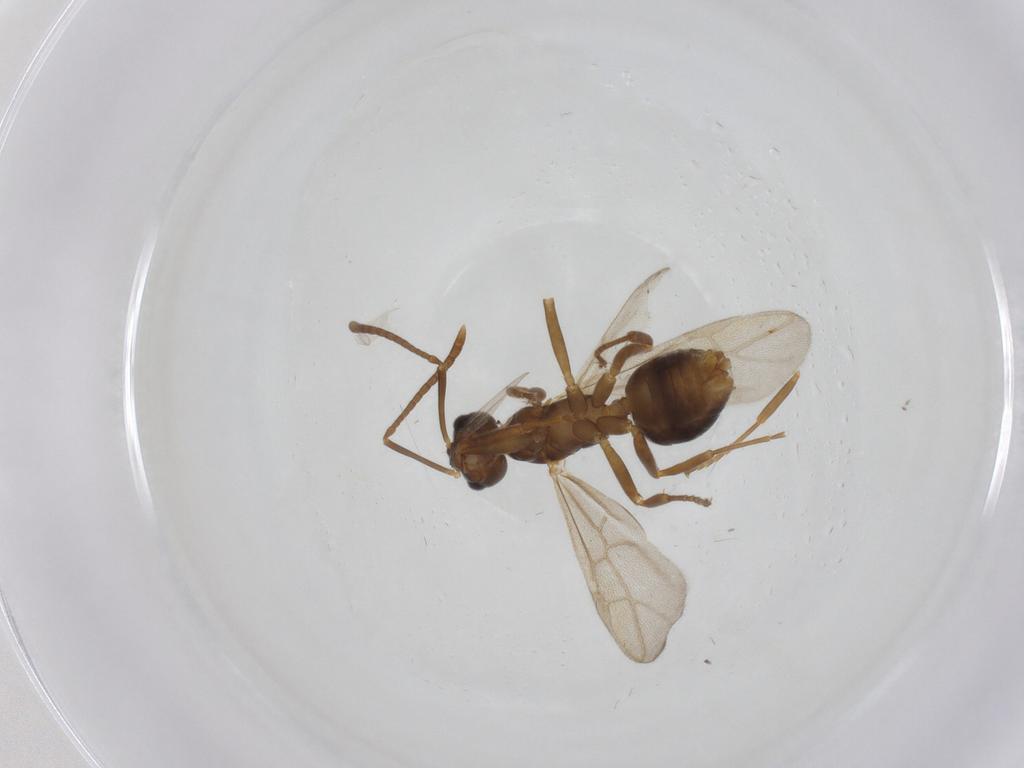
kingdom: Animalia
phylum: Arthropoda
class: Insecta
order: Hymenoptera
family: Formicidae
